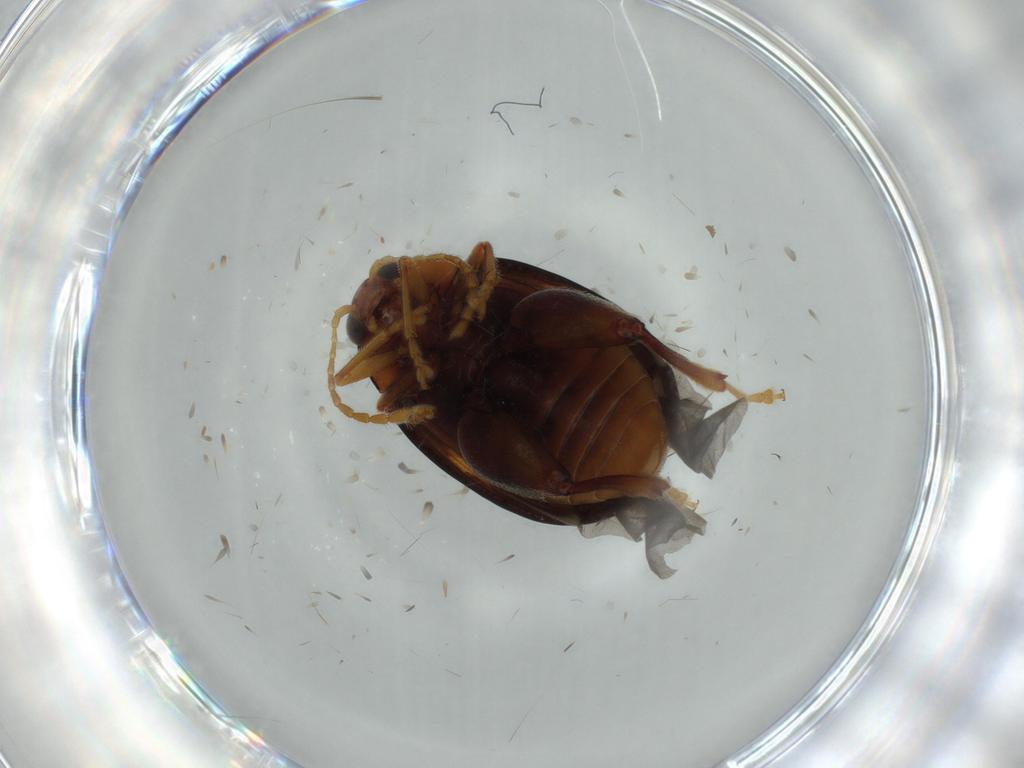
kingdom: Animalia
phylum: Arthropoda
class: Insecta
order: Coleoptera
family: Coccinellidae
